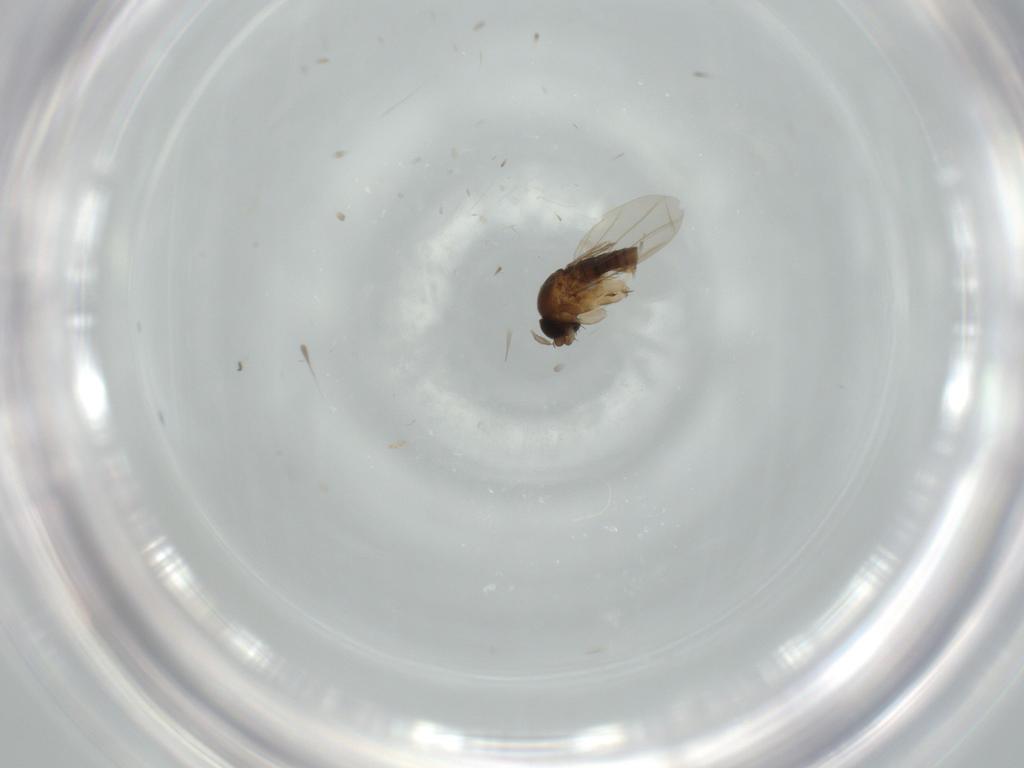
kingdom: Animalia
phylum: Arthropoda
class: Insecta
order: Diptera
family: Phoridae
